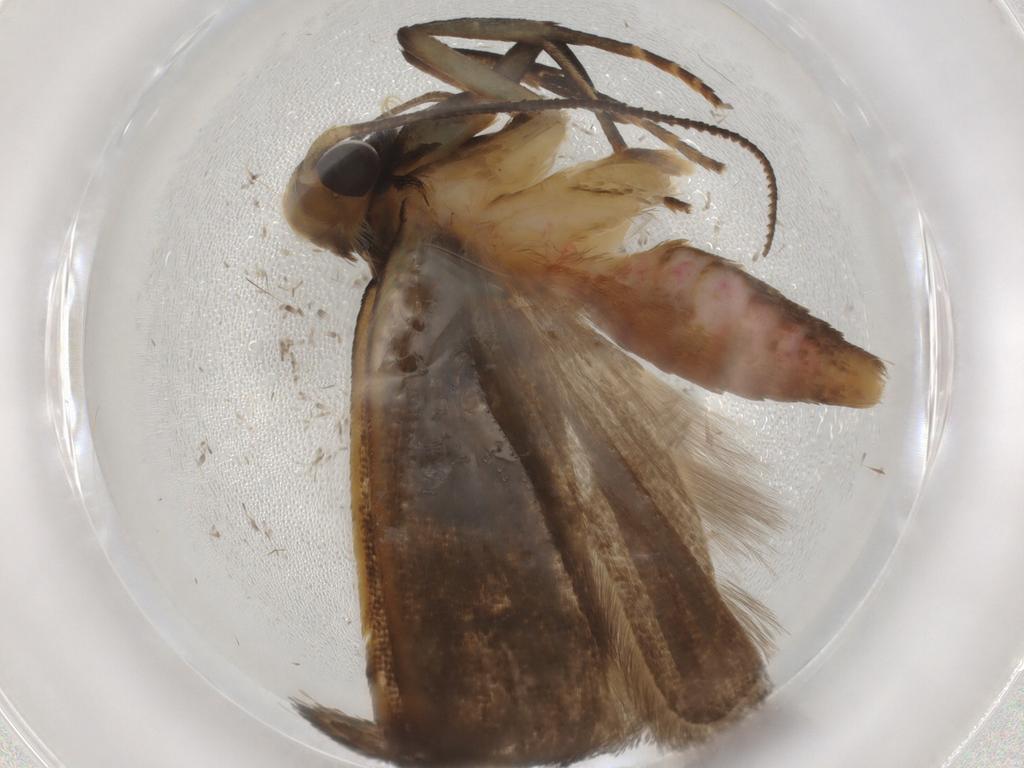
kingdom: Animalia
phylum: Arthropoda
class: Insecta
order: Lepidoptera
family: Gelechiidae
